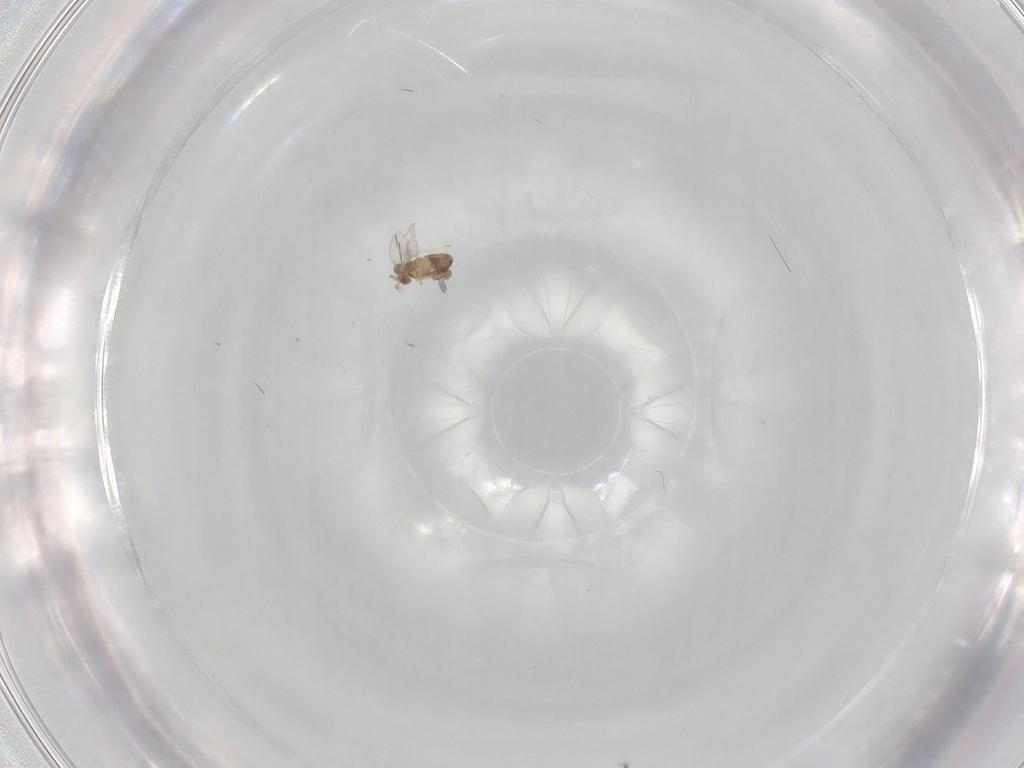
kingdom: Animalia
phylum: Arthropoda
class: Insecta
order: Hymenoptera
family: Trichogrammatidae
